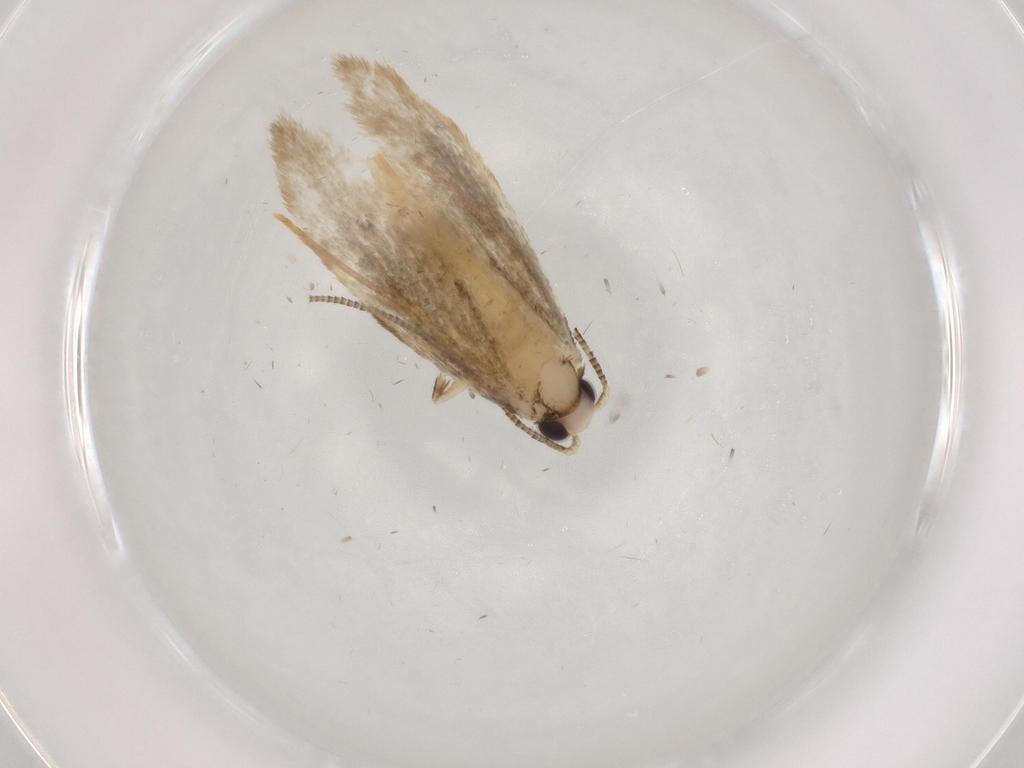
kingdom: Animalia
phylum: Arthropoda
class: Insecta
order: Lepidoptera
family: Tineidae
